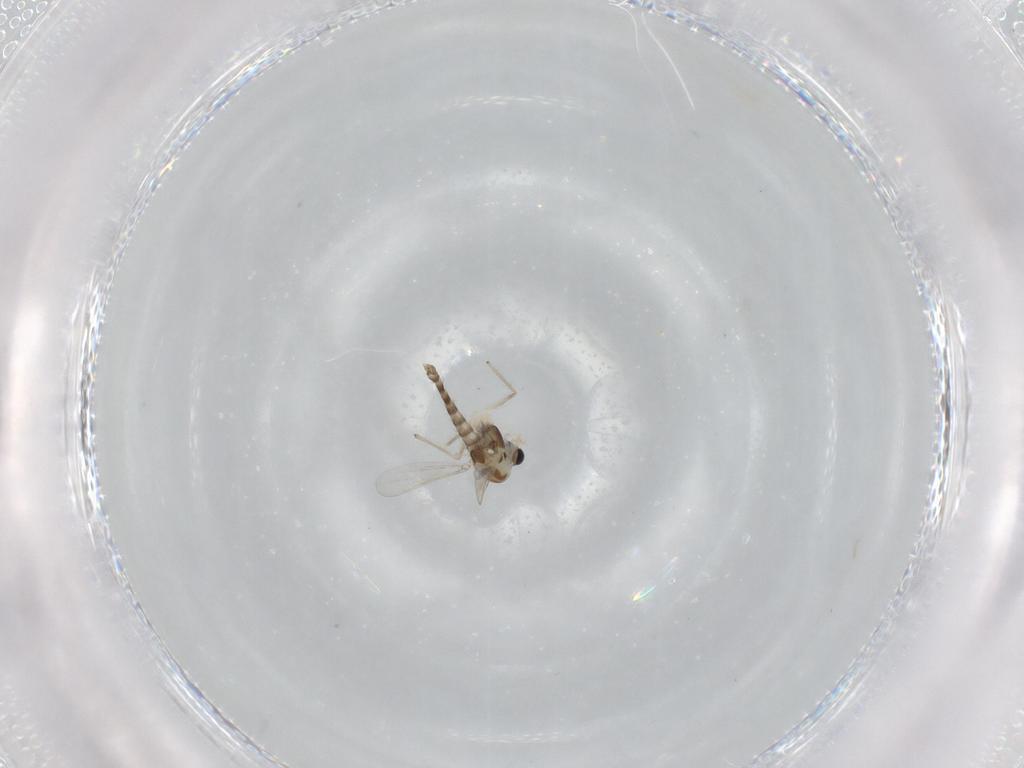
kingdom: Animalia
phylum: Arthropoda
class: Insecta
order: Diptera
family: Chironomidae
